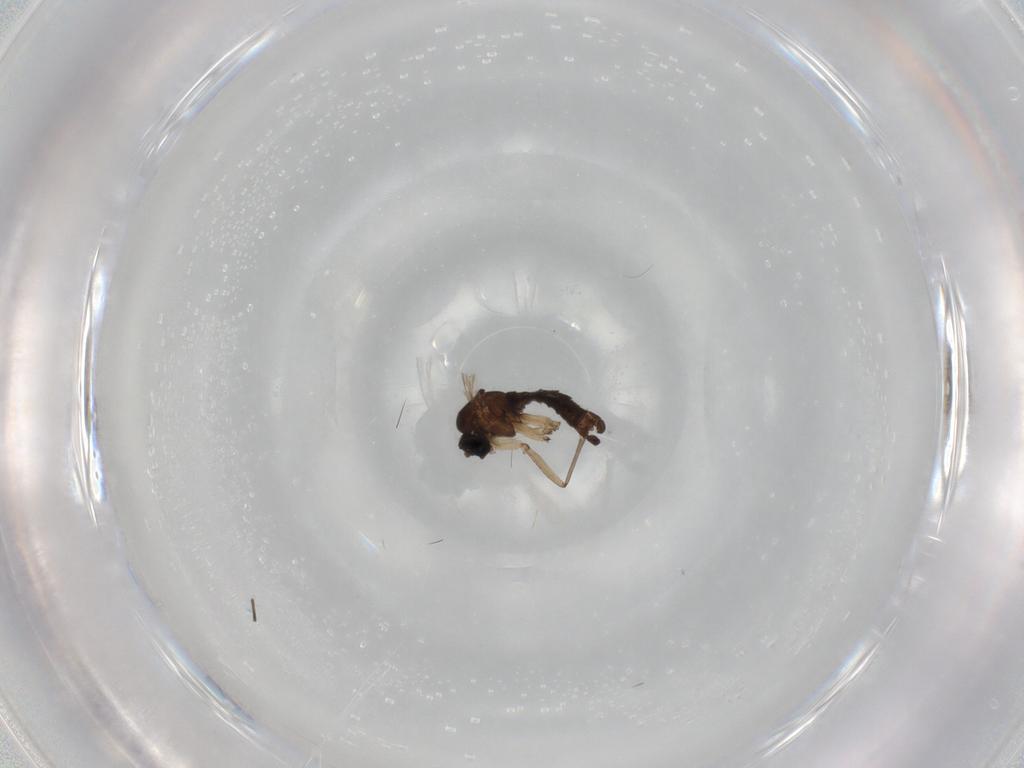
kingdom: Animalia
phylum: Arthropoda
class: Insecta
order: Diptera
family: Sciaridae
